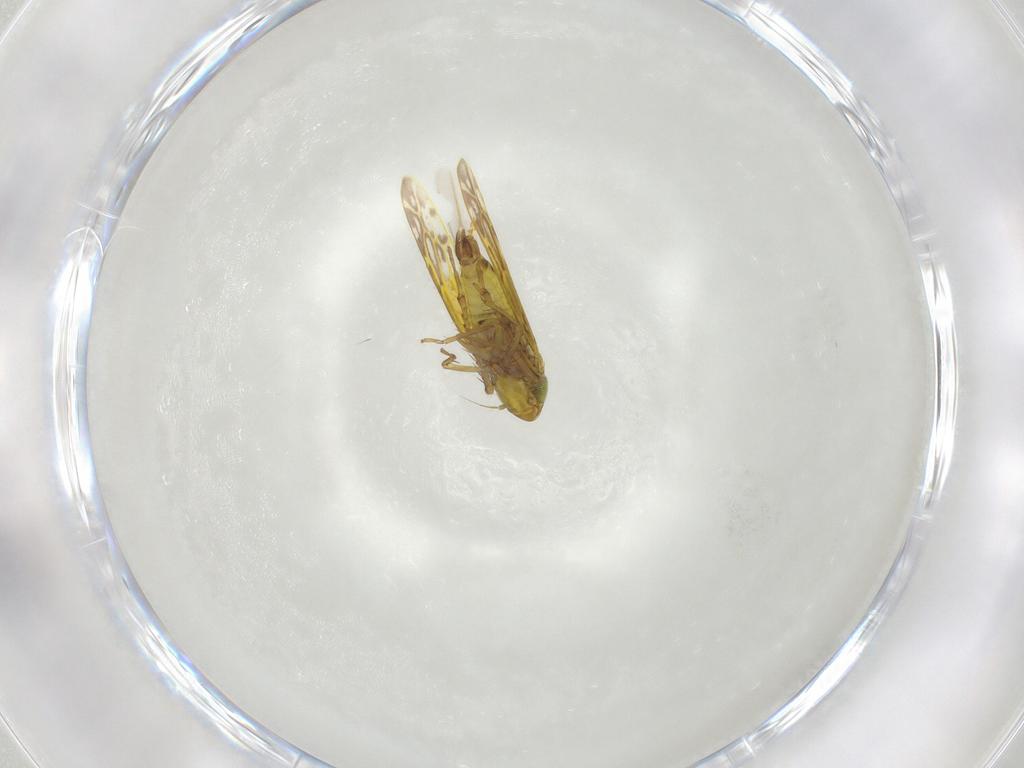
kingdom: Animalia
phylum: Arthropoda
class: Insecta
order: Hemiptera
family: Cicadellidae
